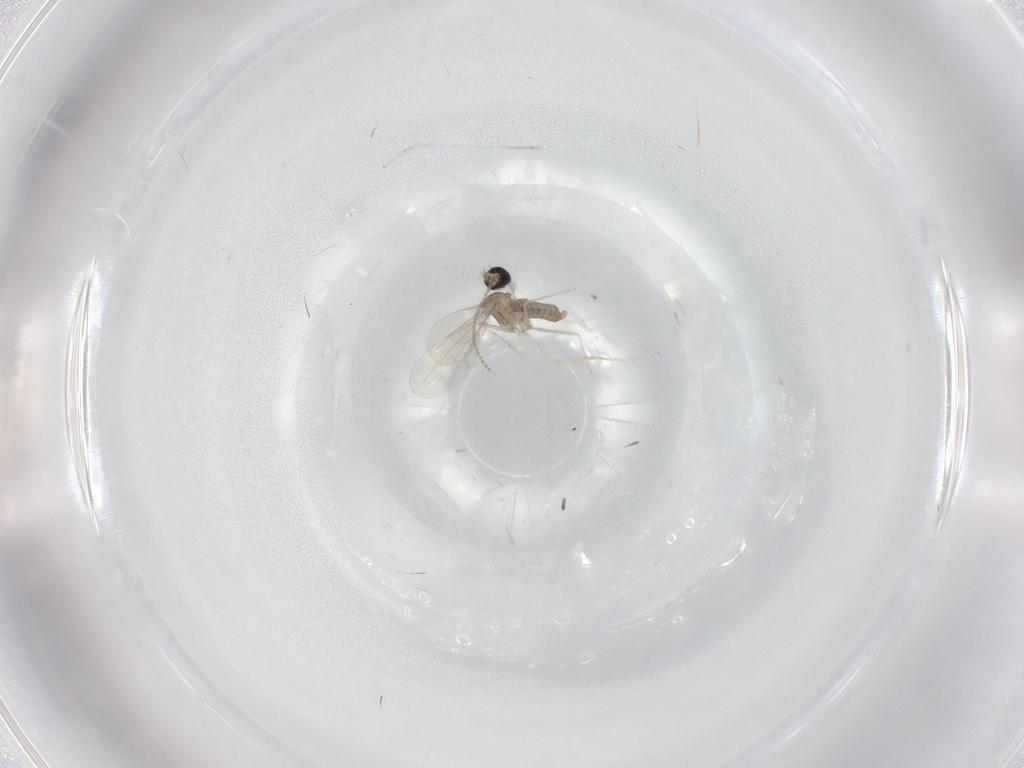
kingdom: Animalia
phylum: Arthropoda
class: Insecta
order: Diptera
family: Cecidomyiidae
